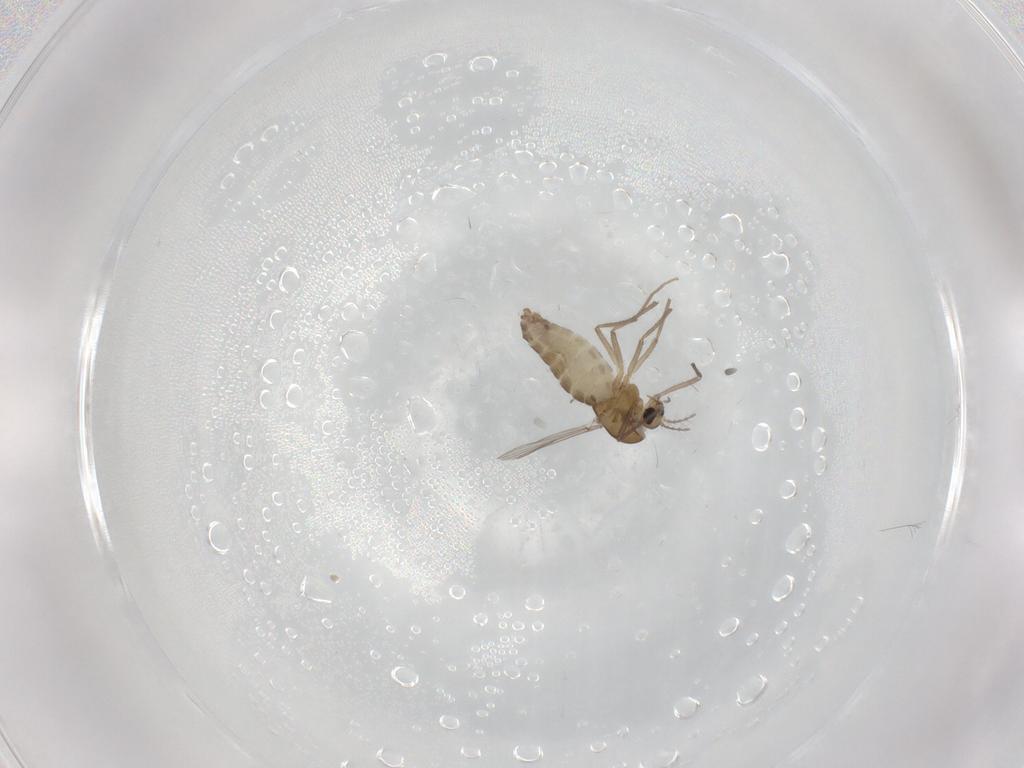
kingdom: Animalia
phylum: Arthropoda
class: Insecta
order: Diptera
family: Chironomidae
